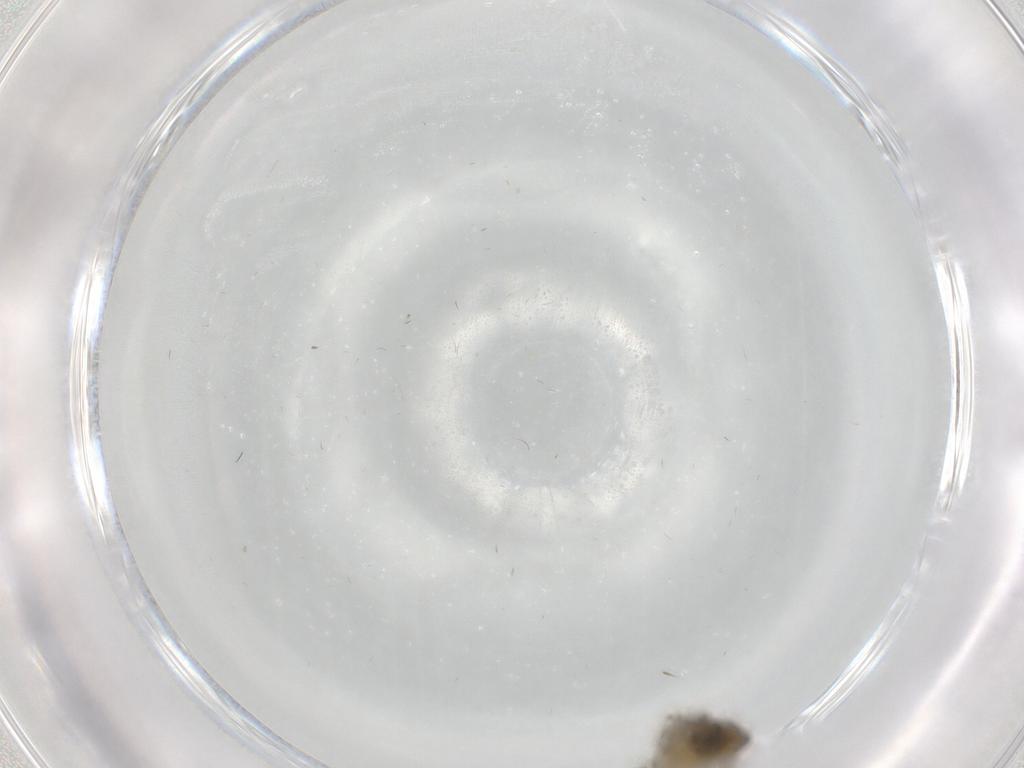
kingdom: Animalia
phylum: Arthropoda
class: Insecta
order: Diptera
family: Ceratopogonidae
